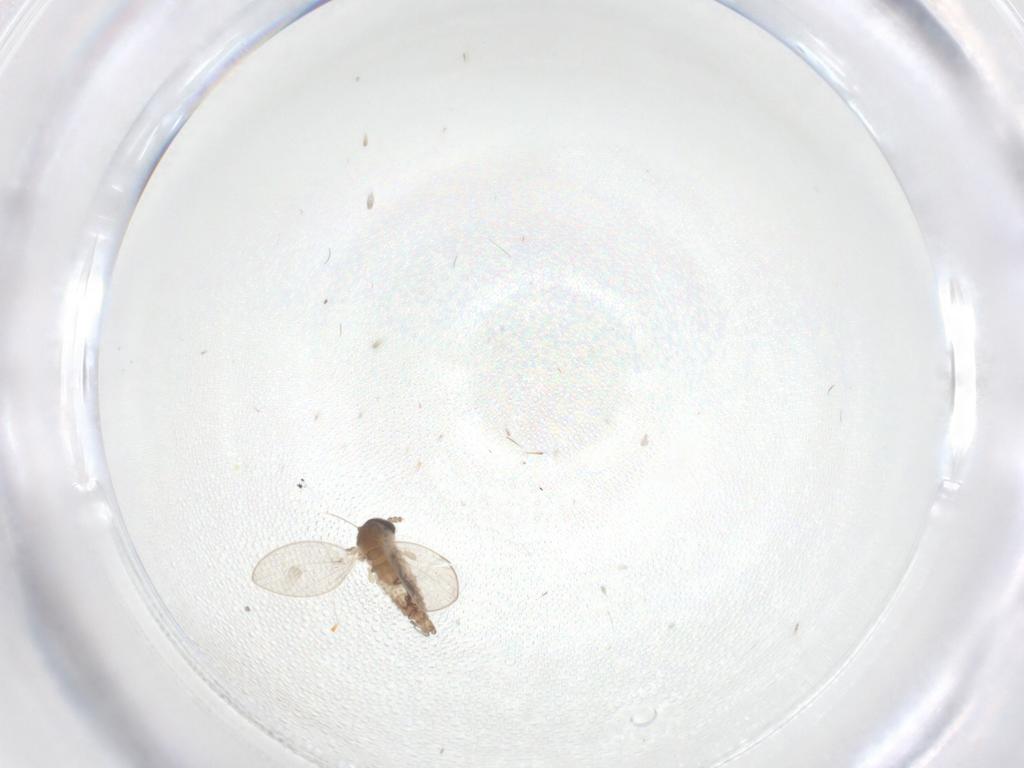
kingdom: Animalia
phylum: Arthropoda
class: Insecta
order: Diptera
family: Psychodidae
